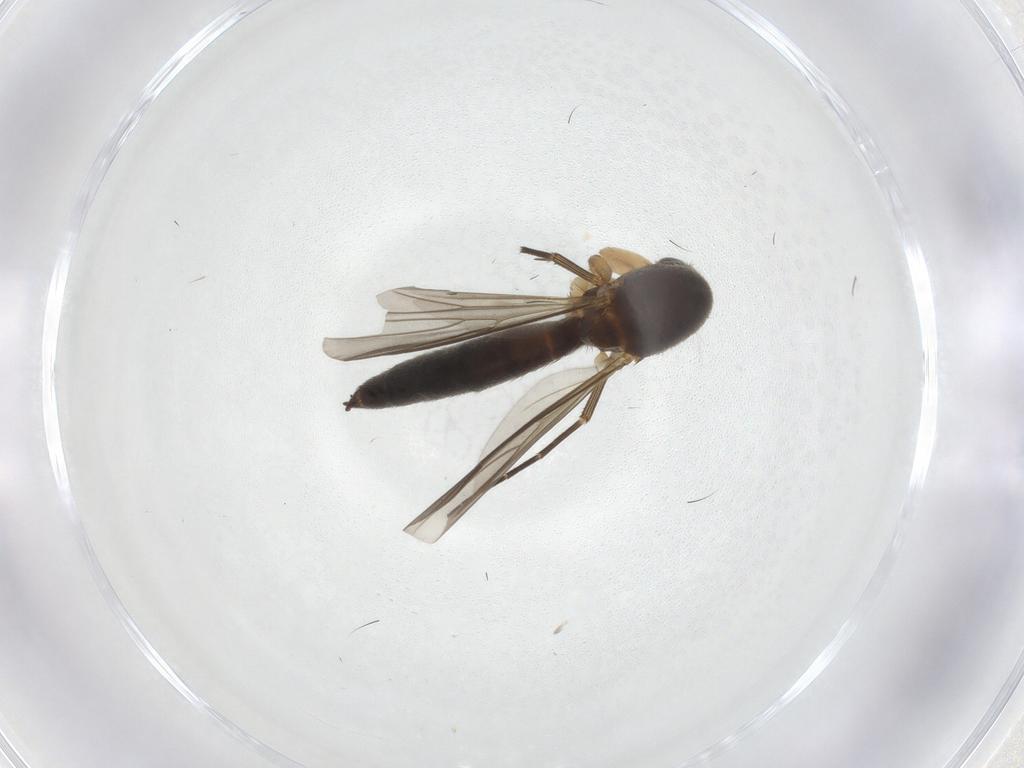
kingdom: Animalia
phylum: Arthropoda
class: Insecta
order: Diptera
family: Mycetophilidae
